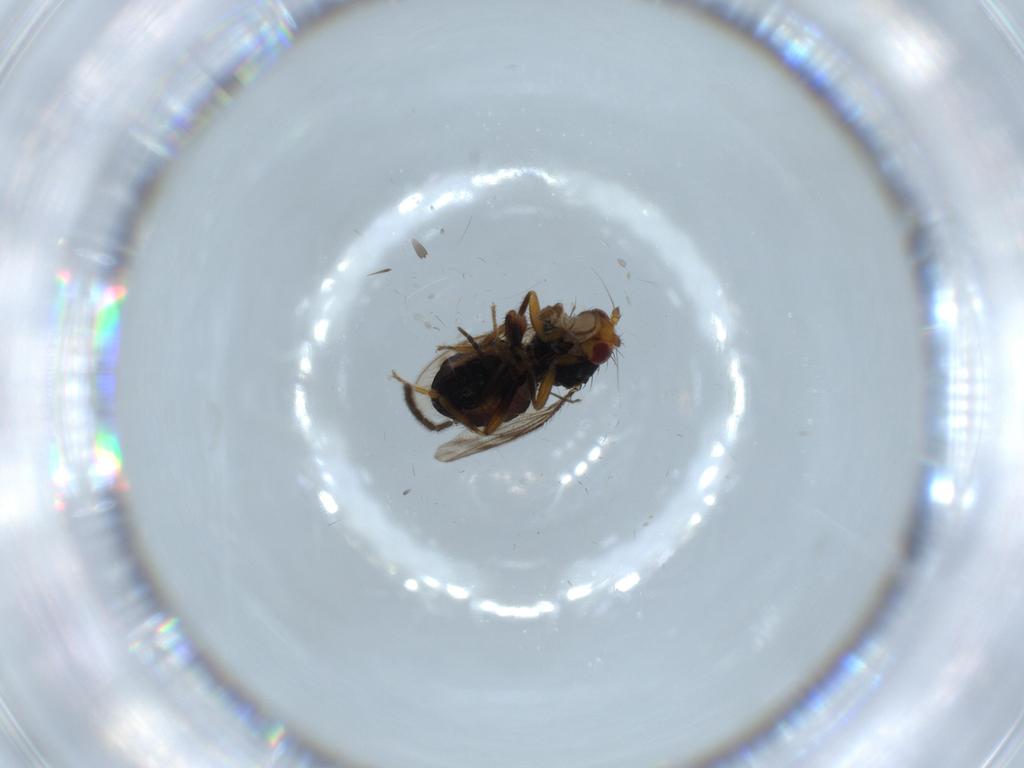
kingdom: Animalia
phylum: Arthropoda
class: Insecta
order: Diptera
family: Sphaeroceridae
